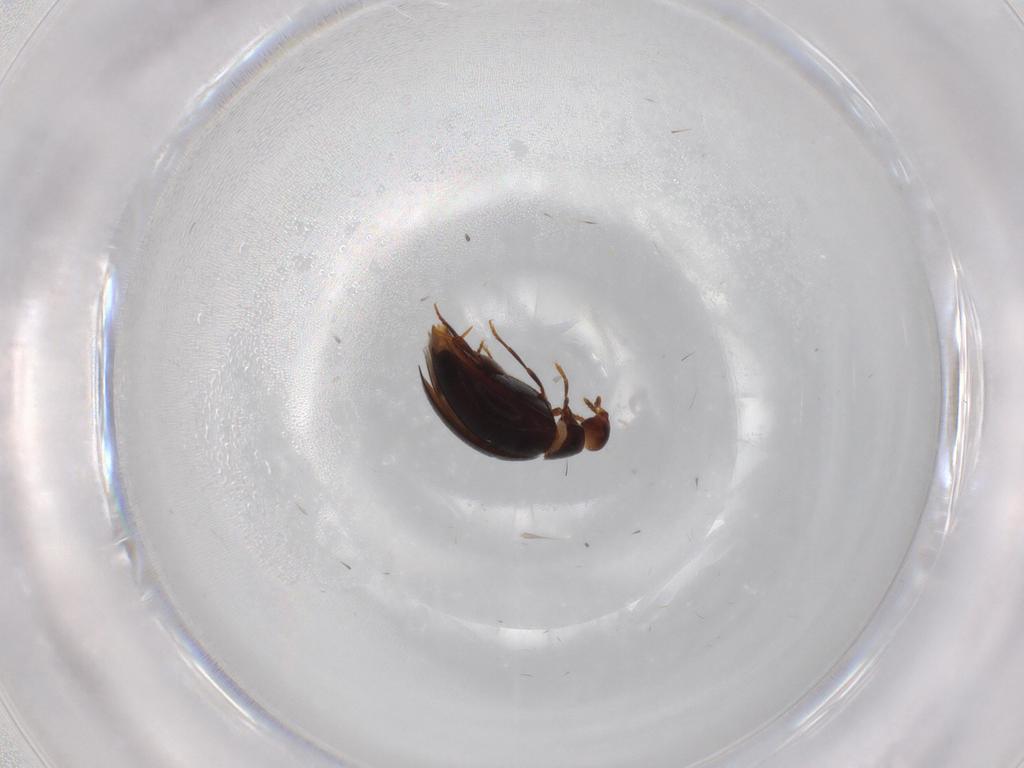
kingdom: Animalia
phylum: Arthropoda
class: Insecta
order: Coleoptera
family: Melandryidae
